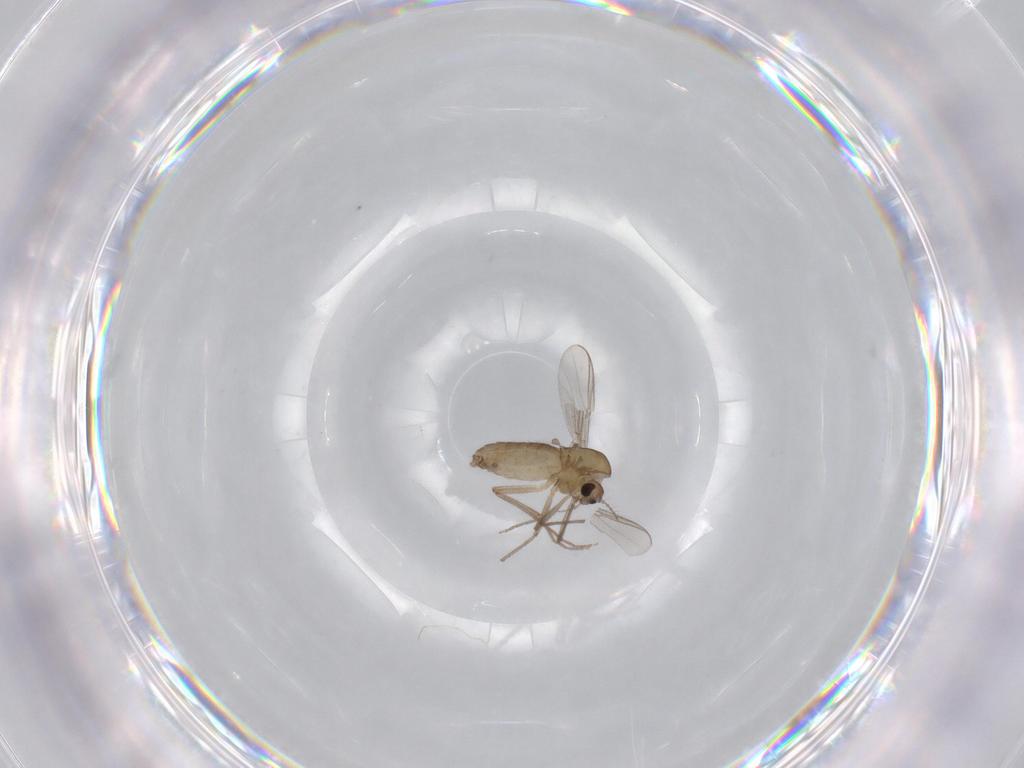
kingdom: Animalia
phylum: Arthropoda
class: Insecta
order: Diptera
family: Chironomidae
